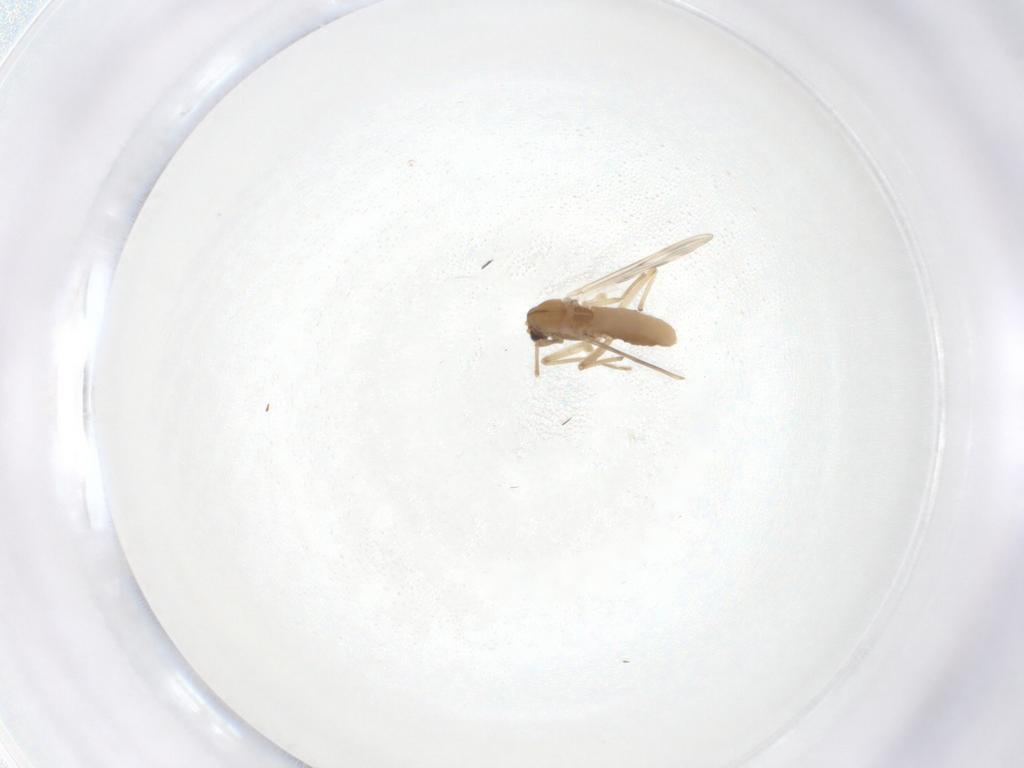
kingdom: Animalia
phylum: Arthropoda
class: Insecta
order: Diptera
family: Chironomidae
